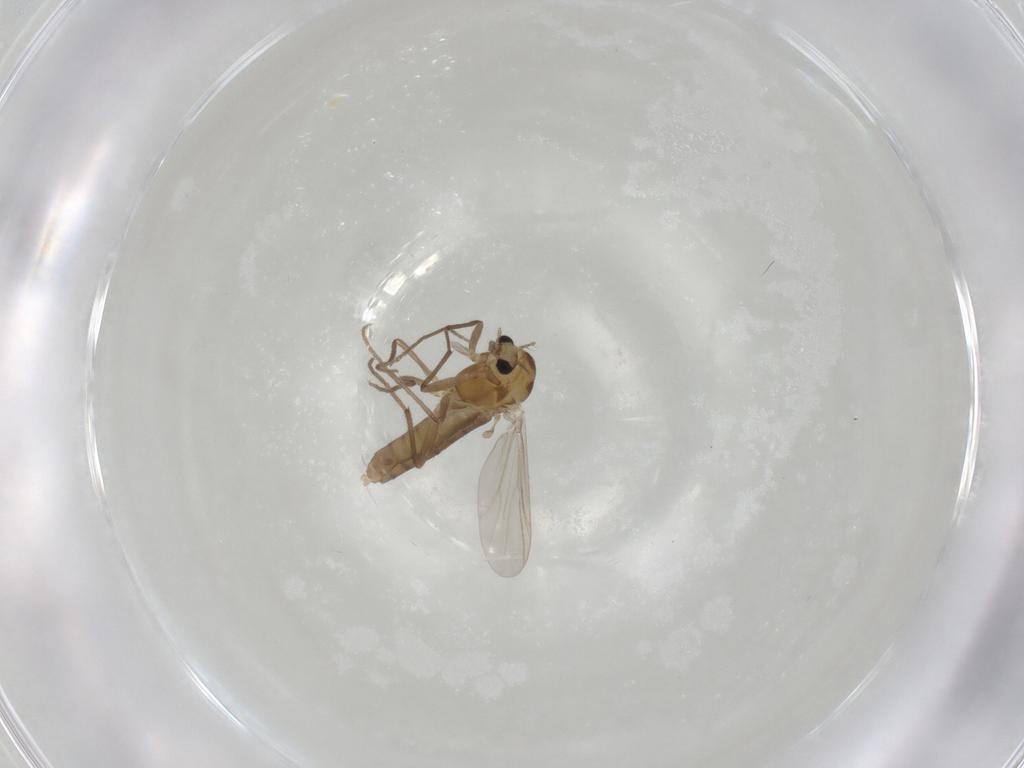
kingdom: Animalia
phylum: Arthropoda
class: Insecta
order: Diptera
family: Chironomidae
